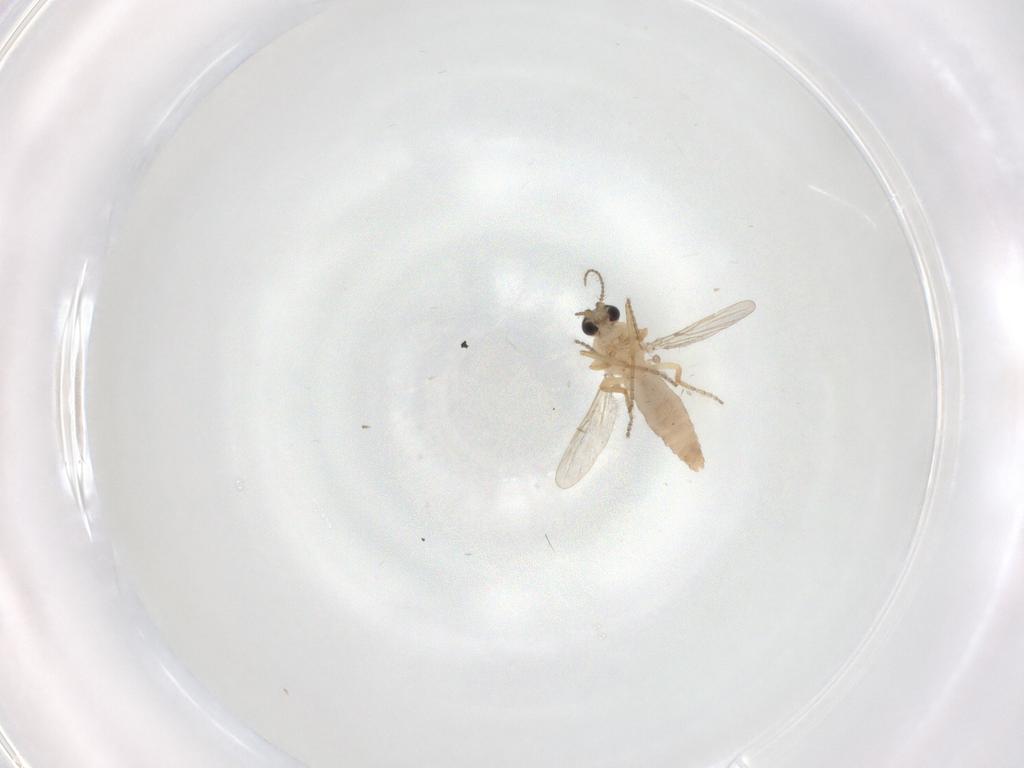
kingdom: Animalia
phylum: Arthropoda
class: Insecta
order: Diptera
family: Ceratopogonidae
